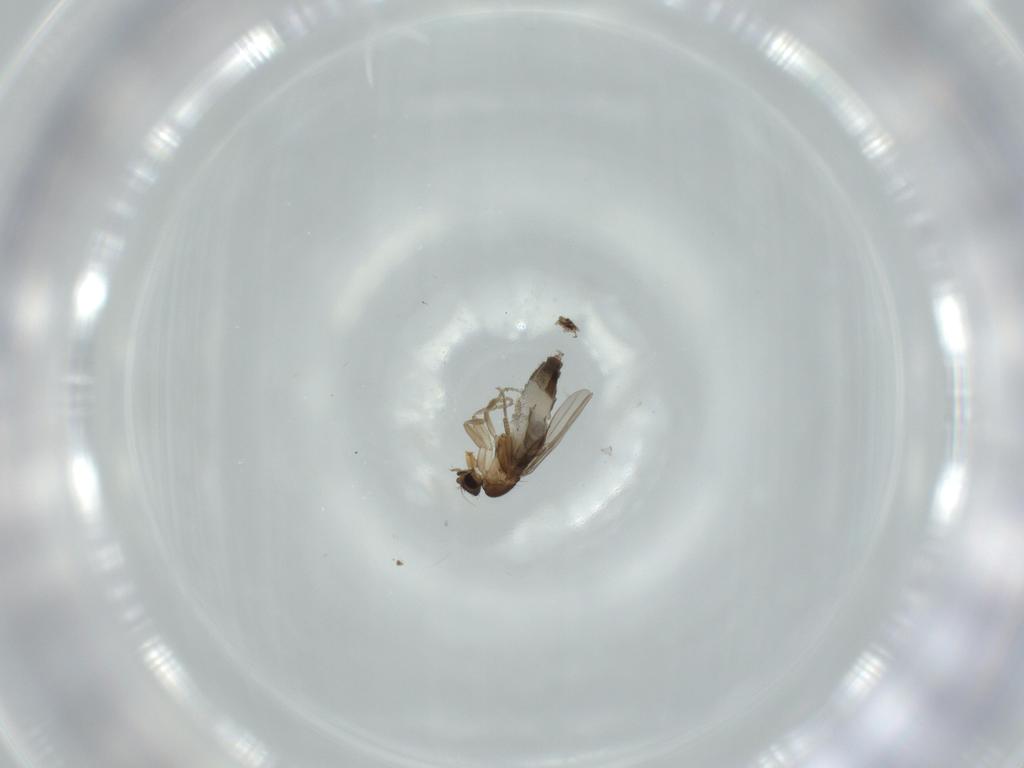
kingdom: Animalia
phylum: Arthropoda
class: Insecta
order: Diptera
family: Phoridae
